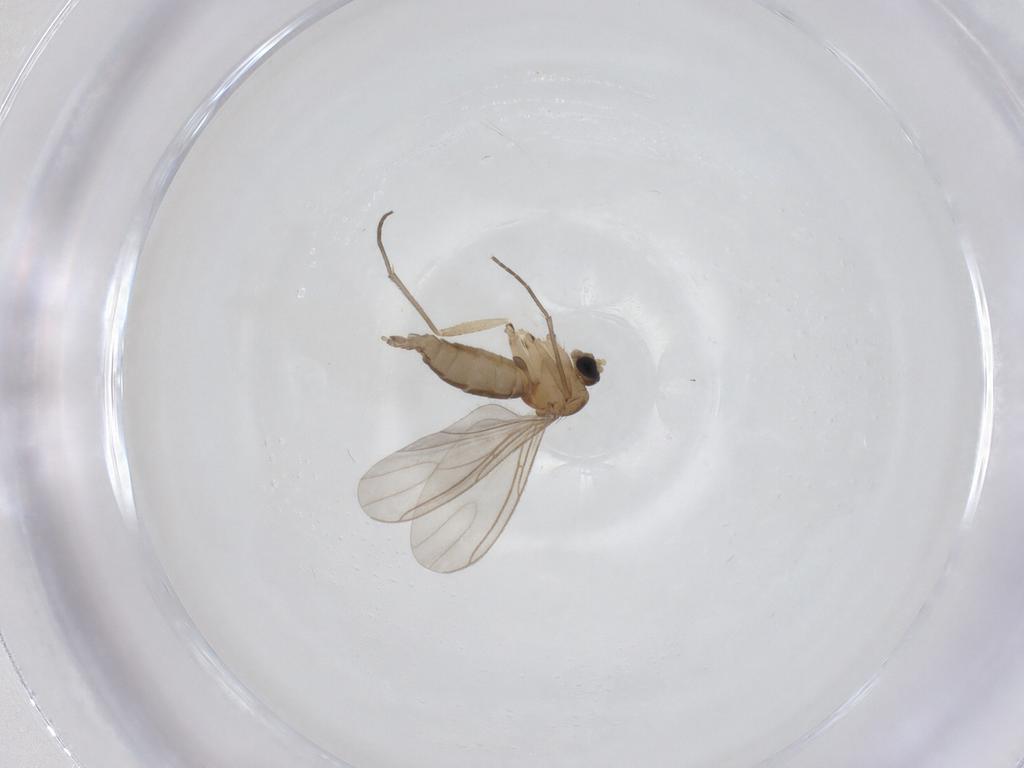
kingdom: Animalia
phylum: Arthropoda
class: Insecta
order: Diptera
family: Sciaridae
